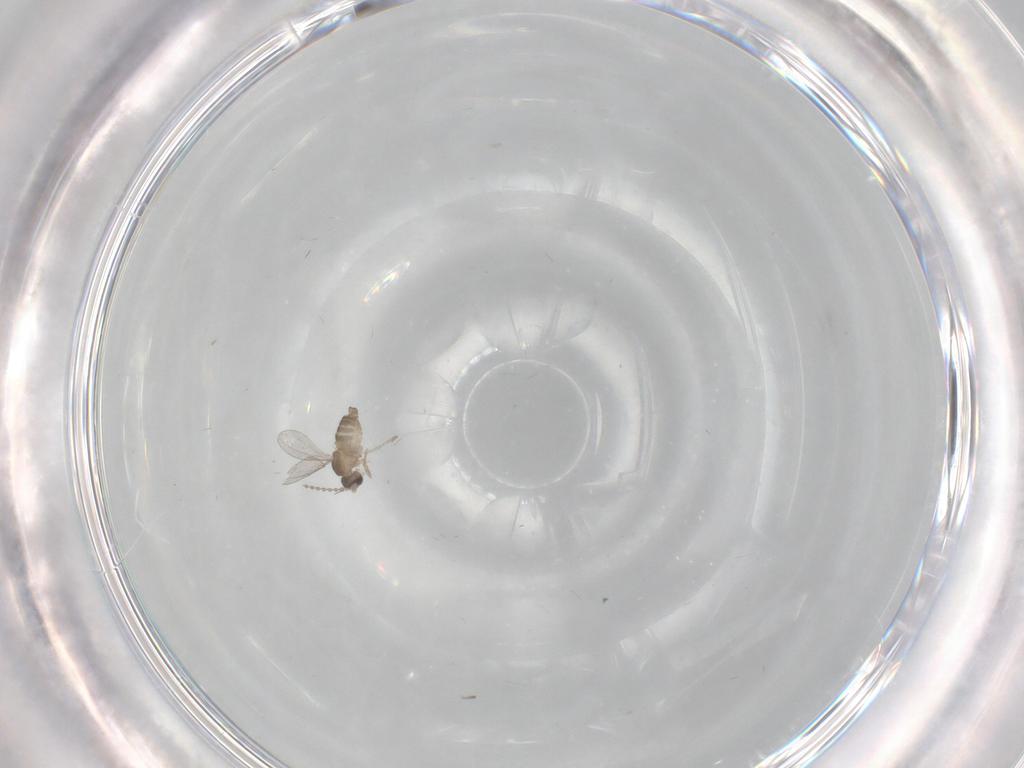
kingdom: Animalia
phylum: Arthropoda
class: Insecta
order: Diptera
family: Cecidomyiidae
